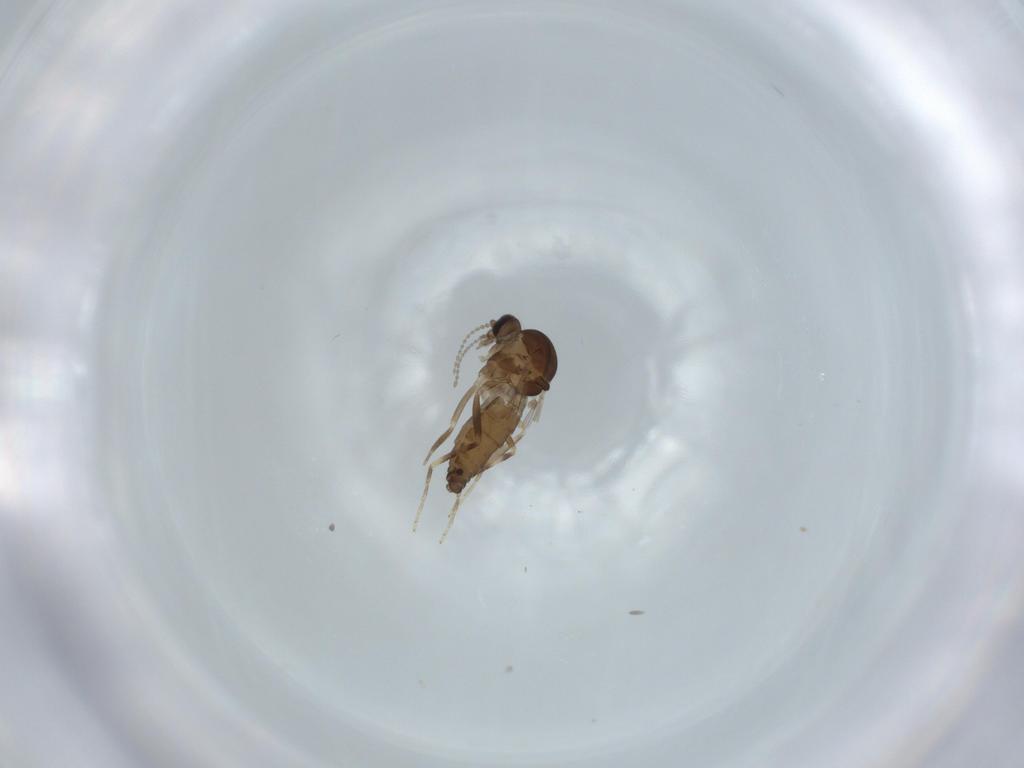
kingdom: Animalia
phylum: Arthropoda
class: Insecta
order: Diptera
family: Ceratopogonidae
